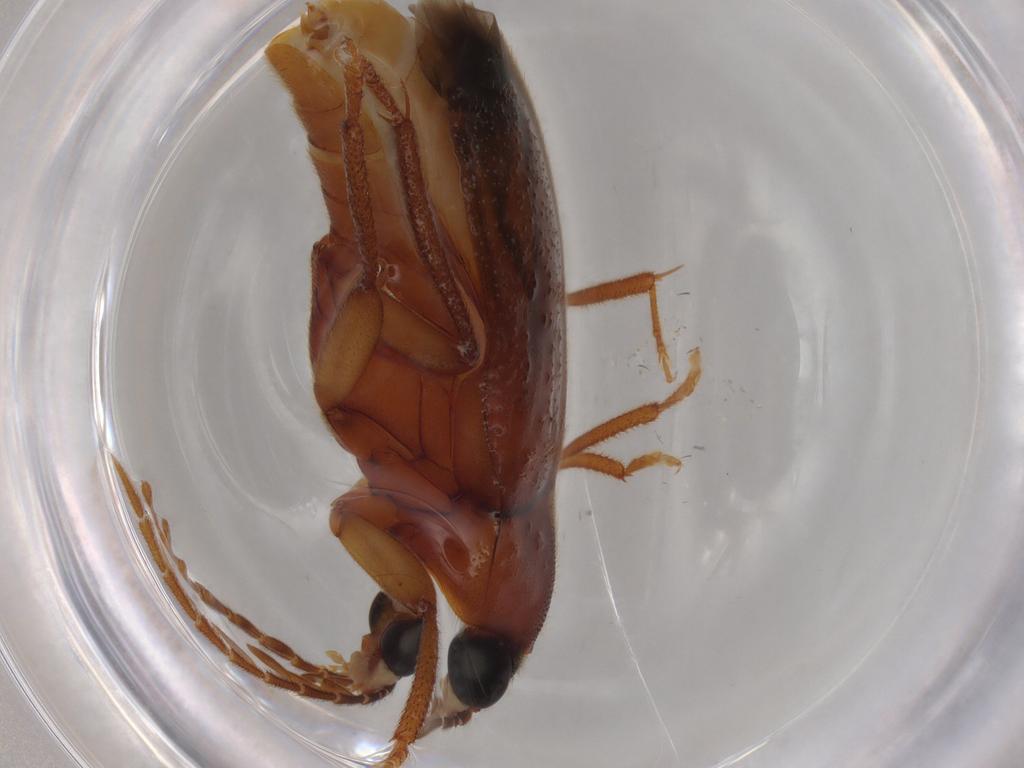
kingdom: Animalia
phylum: Arthropoda
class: Insecta
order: Coleoptera
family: Ptilodactylidae
